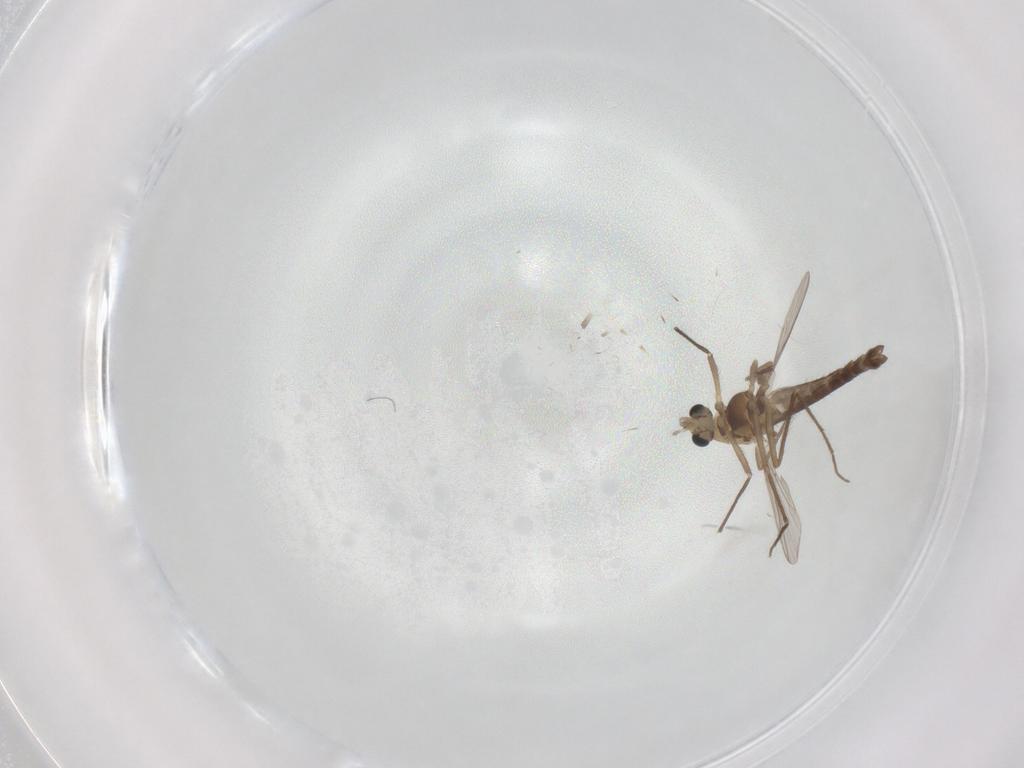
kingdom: Animalia
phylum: Arthropoda
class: Insecta
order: Diptera
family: Chironomidae
